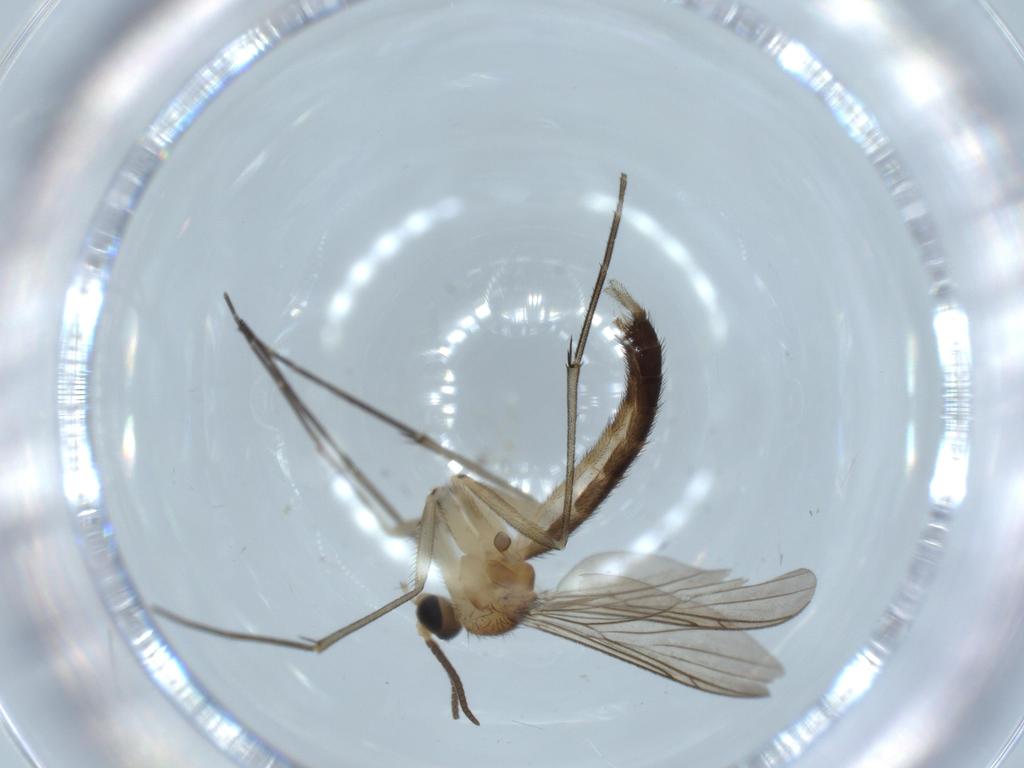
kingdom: Animalia
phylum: Arthropoda
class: Insecta
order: Diptera
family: Keroplatidae
